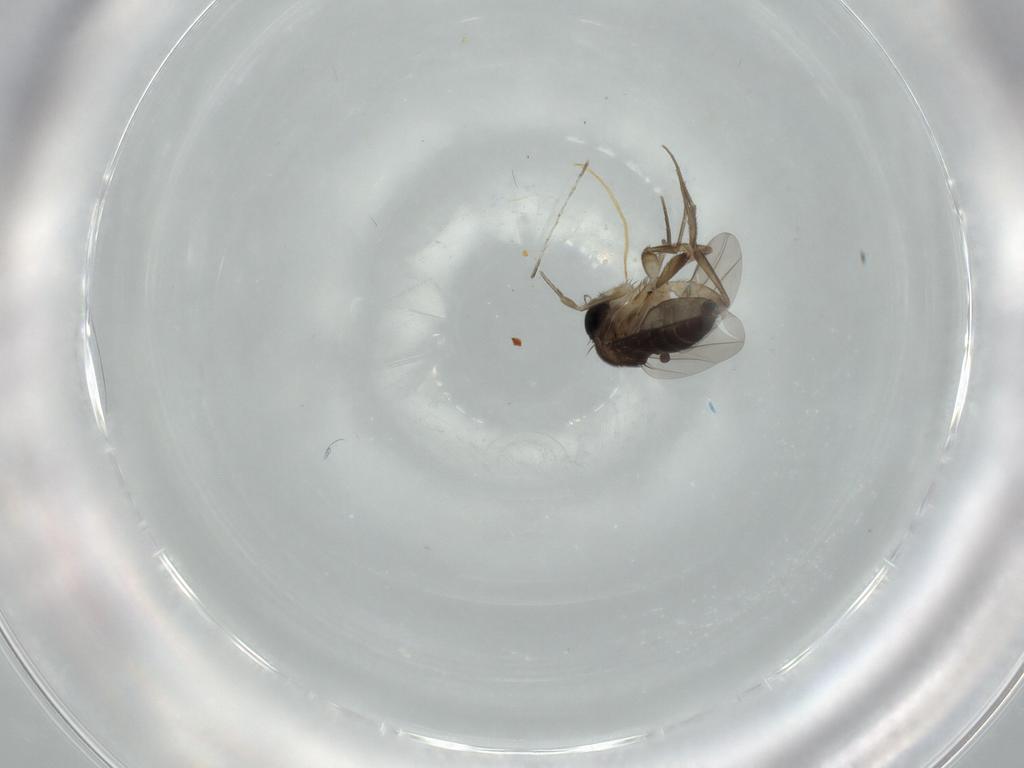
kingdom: Animalia
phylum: Arthropoda
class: Insecta
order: Diptera
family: Phoridae
